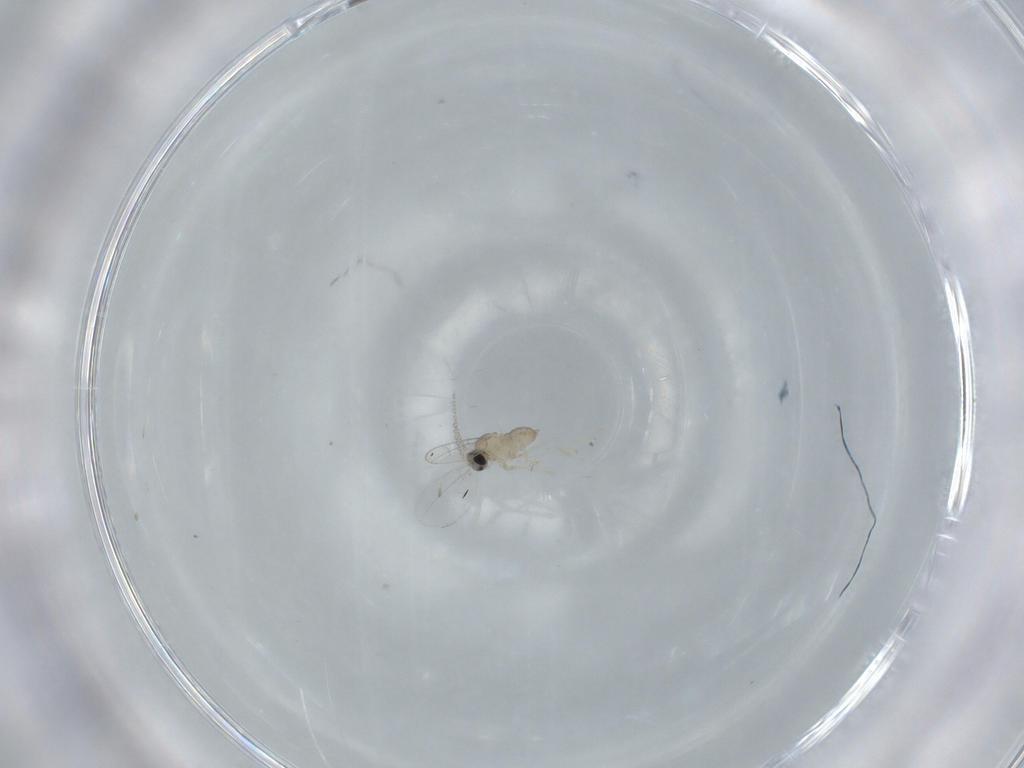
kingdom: Animalia
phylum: Arthropoda
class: Insecta
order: Diptera
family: Cecidomyiidae
